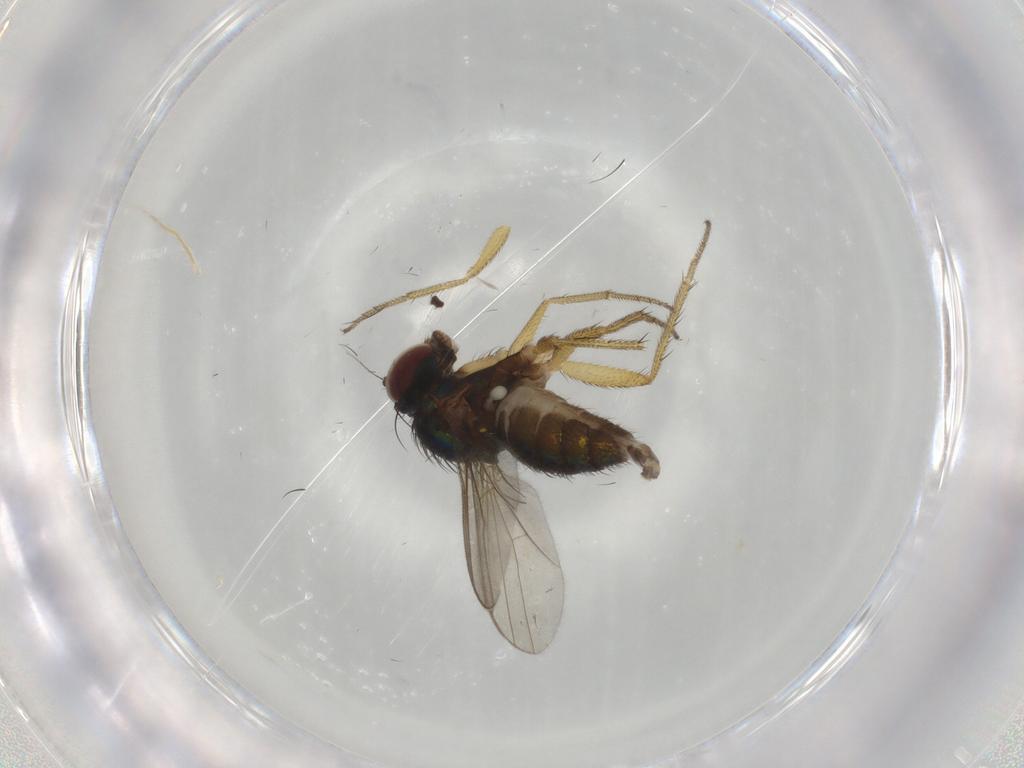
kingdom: Animalia
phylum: Arthropoda
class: Insecta
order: Diptera
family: Dolichopodidae
